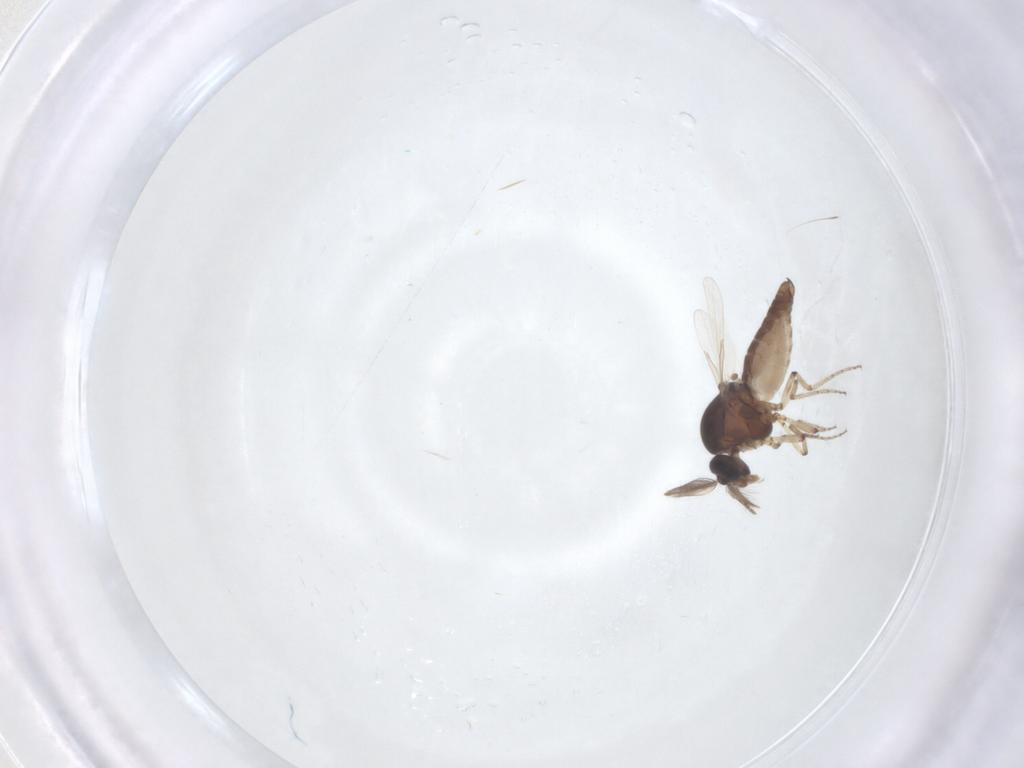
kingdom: Animalia
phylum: Arthropoda
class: Insecta
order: Diptera
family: Ceratopogonidae
